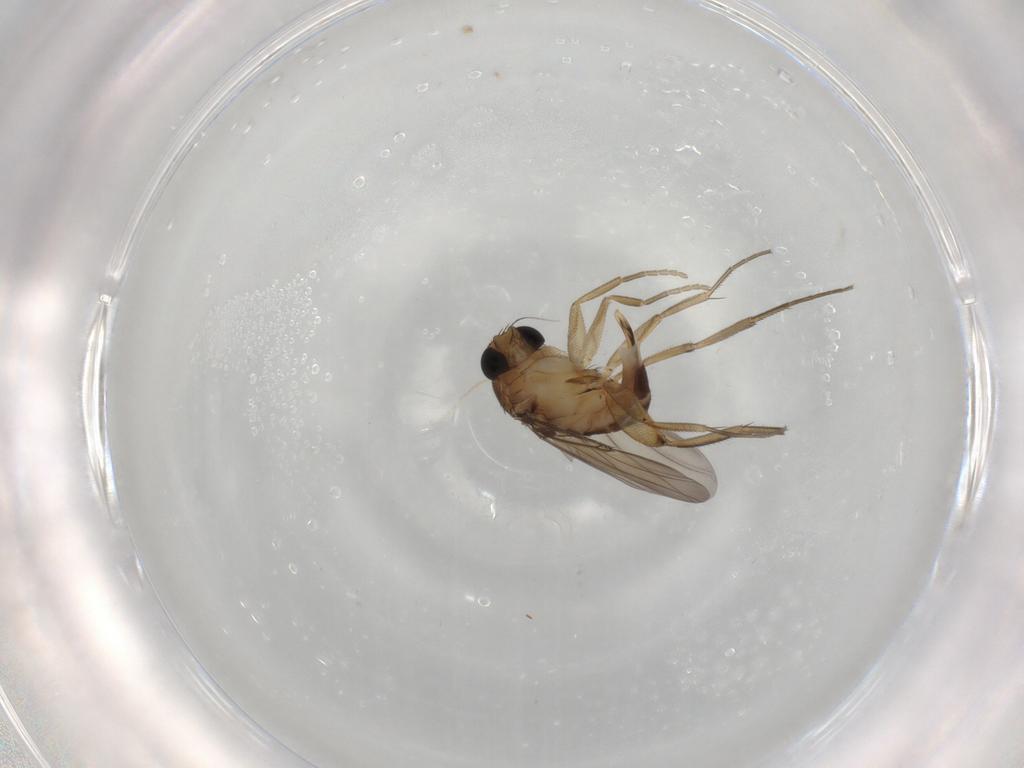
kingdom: Animalia
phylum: Arthropoda
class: Insecta
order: Diptera
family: Phoridae
